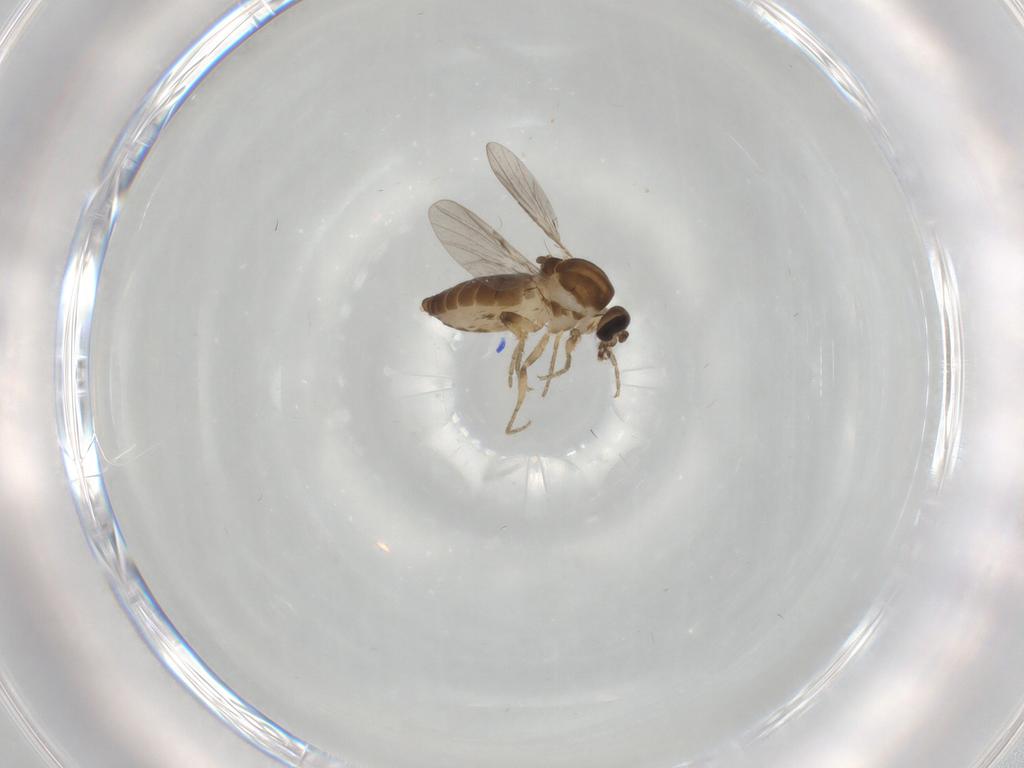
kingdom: Animalia
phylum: Arthropoda
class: Insecta
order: Diptera
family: Ceratopogonidae
